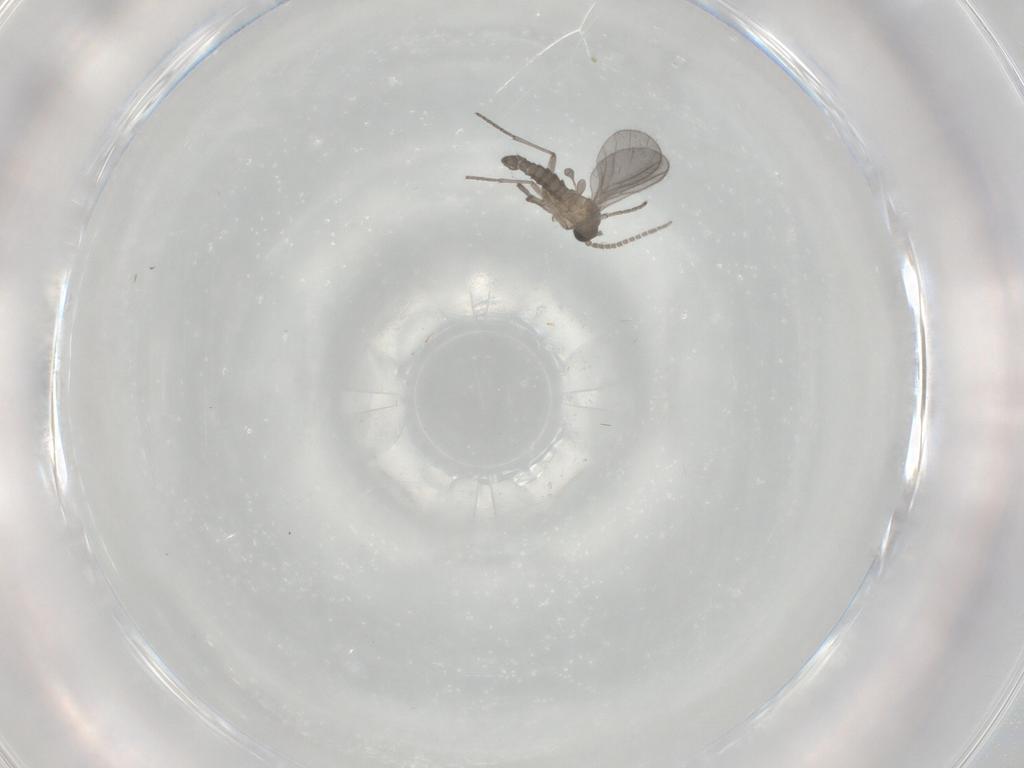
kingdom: Animalia
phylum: Arthropoda
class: Insecta
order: Diptera
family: Sciaridae
